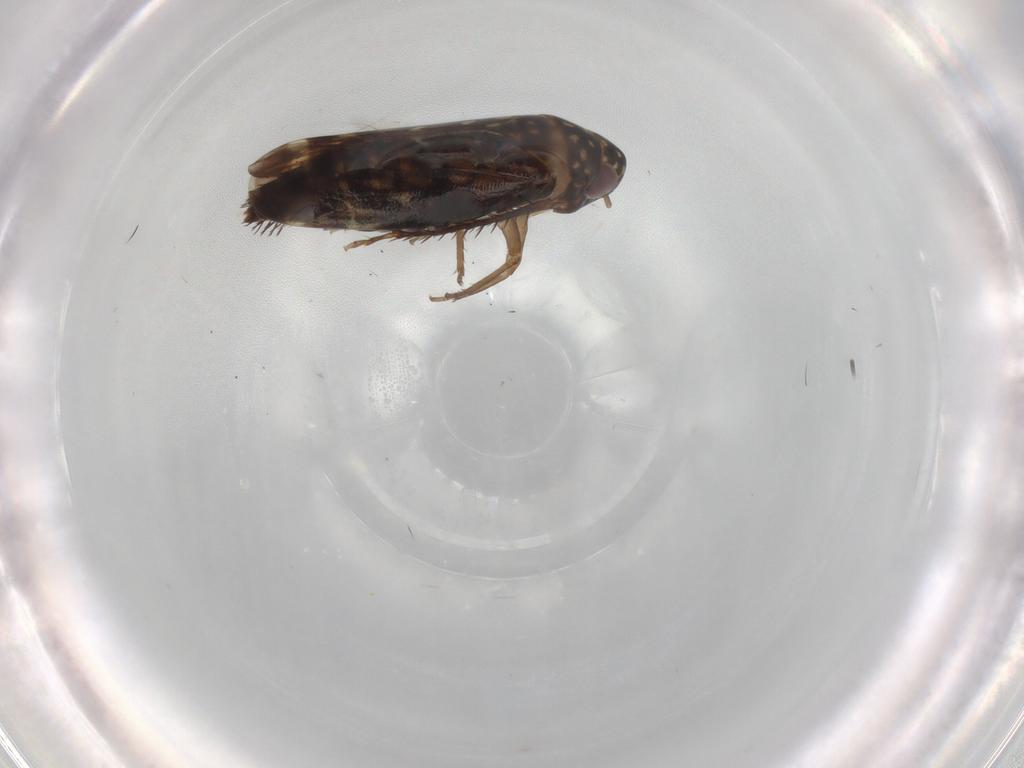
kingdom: Animalia
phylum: Arthropoda
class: Insecta
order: Hemiptera
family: Cicadellidae
